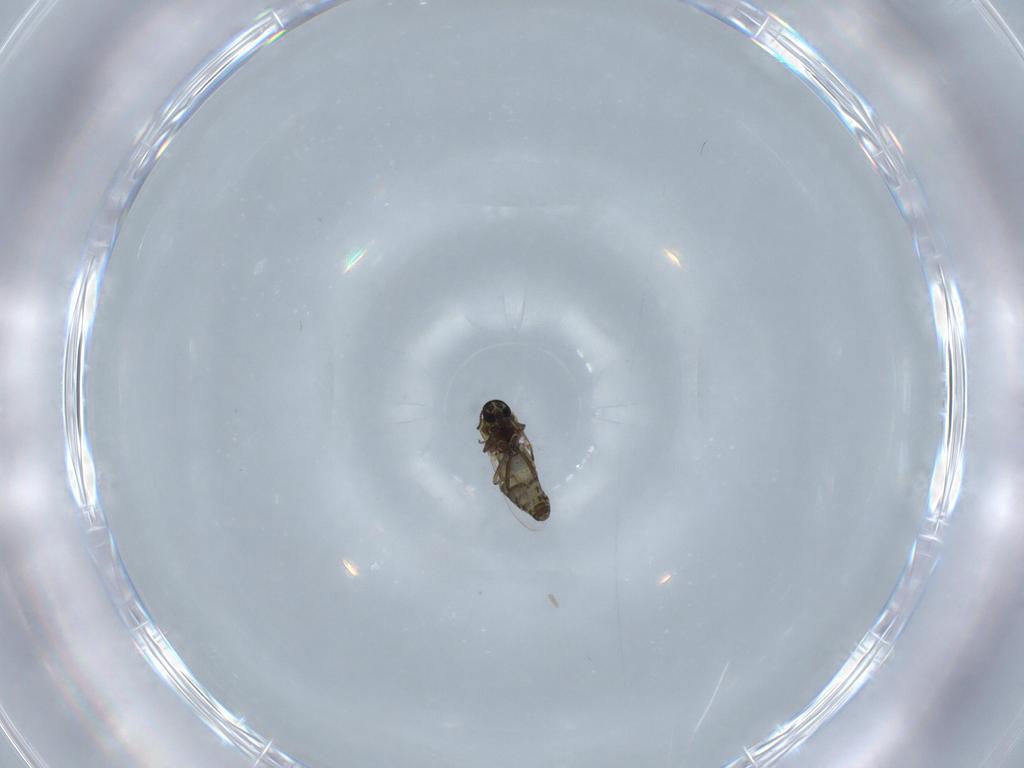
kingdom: Animalia
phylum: Arthropoda
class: Insecta
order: Diptera
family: Ceratopogonidae
